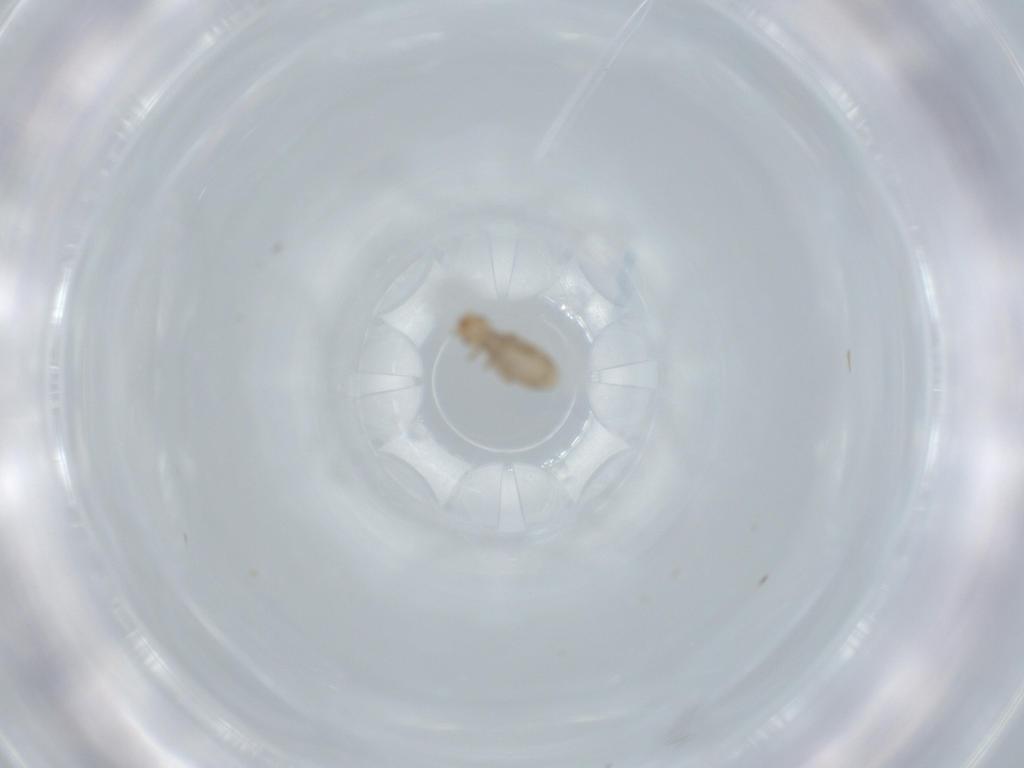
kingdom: Animalia
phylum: Arthropoda
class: Insecta
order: Psocodea
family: Liposcelididae
